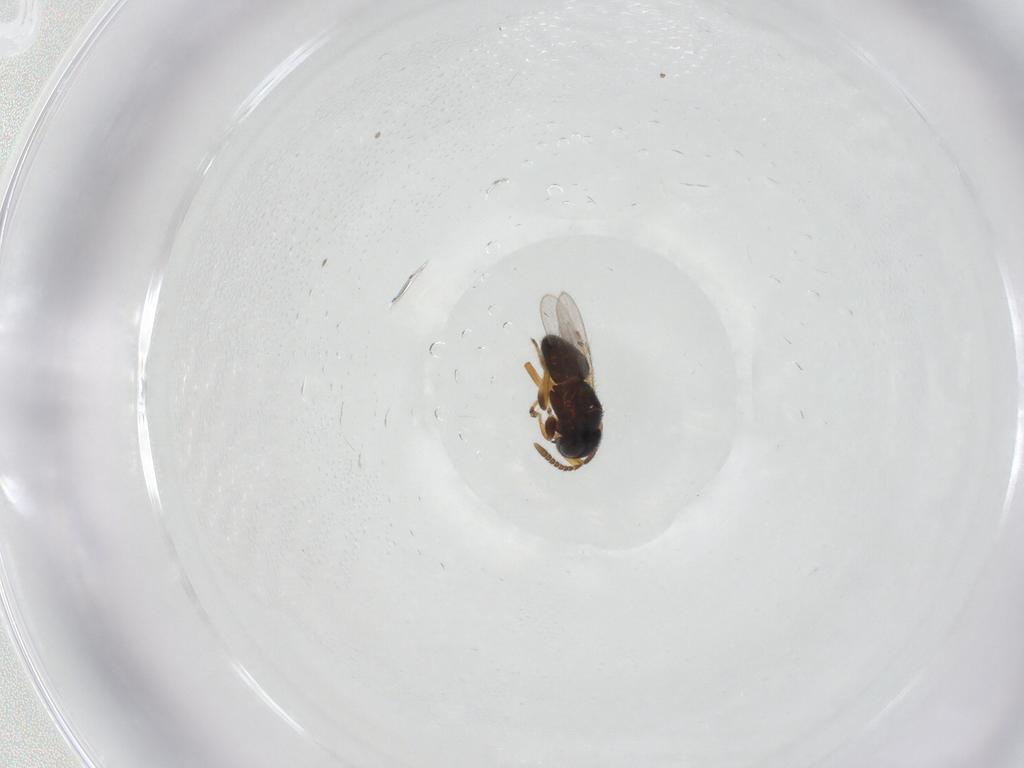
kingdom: Animalia
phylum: Arthropoda
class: Insecta
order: Hymenoptera
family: Encyrtidae
